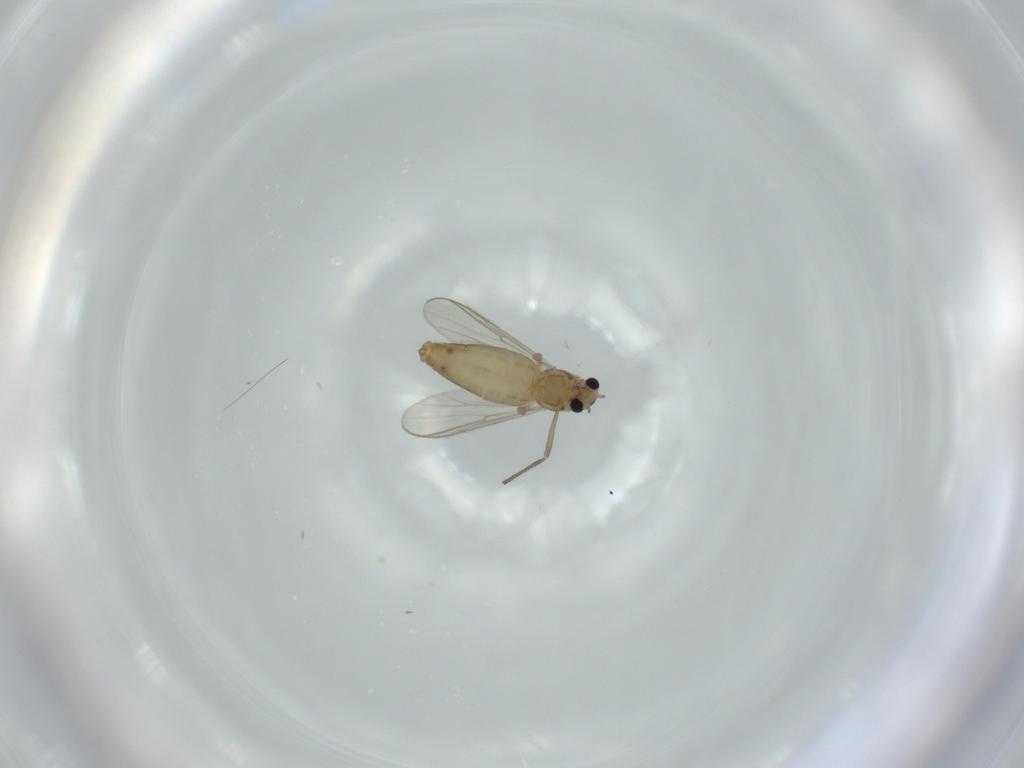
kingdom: Animalia
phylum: Arthropoda
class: Insecta
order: Diptera
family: Chironomidae
